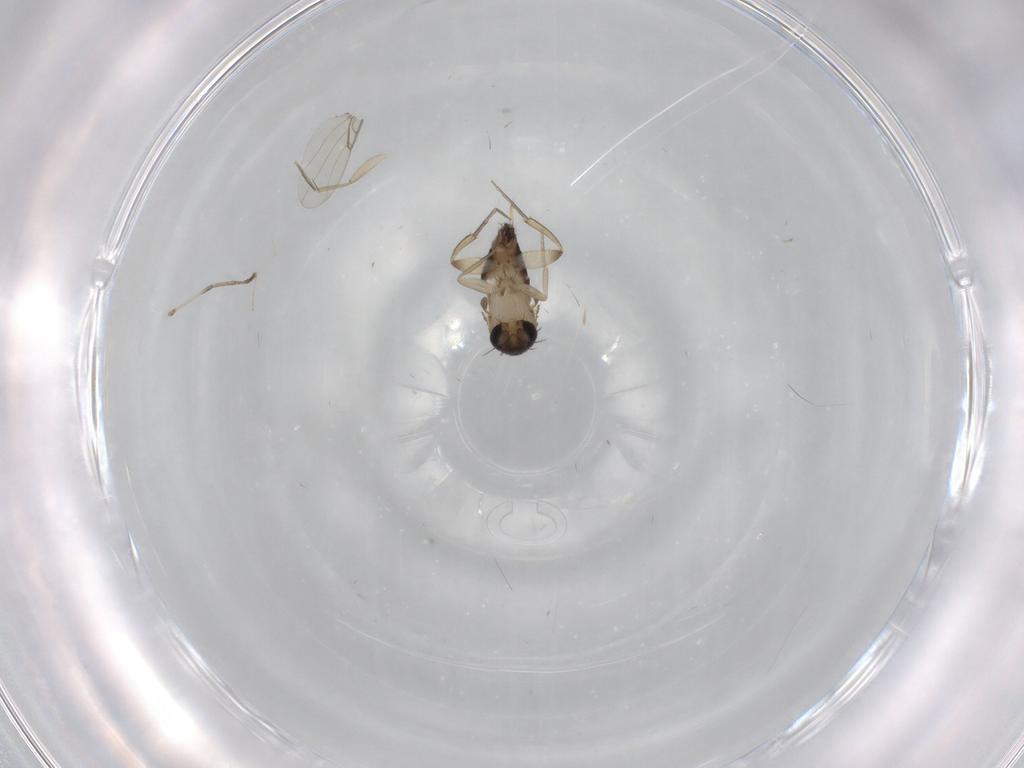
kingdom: Animalia
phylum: Arthropoda
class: Insecta
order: Diptera
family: Phoridae
